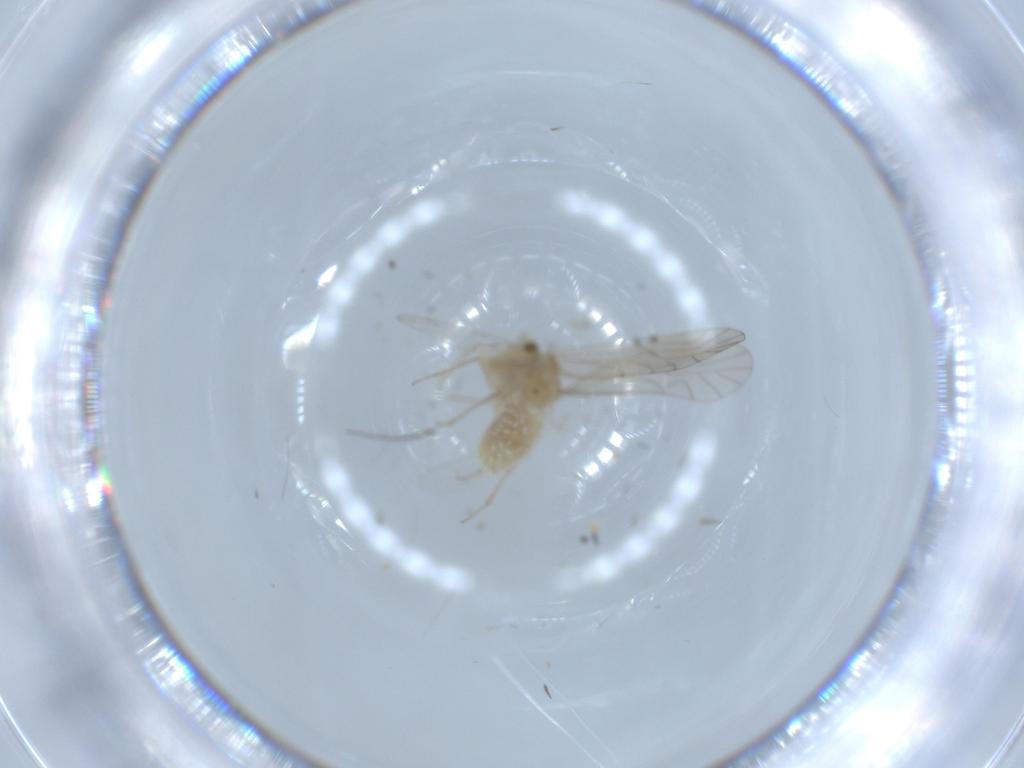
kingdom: Animalia
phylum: Arthropoda
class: Insecta
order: Psocodea
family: Lachesillidae
